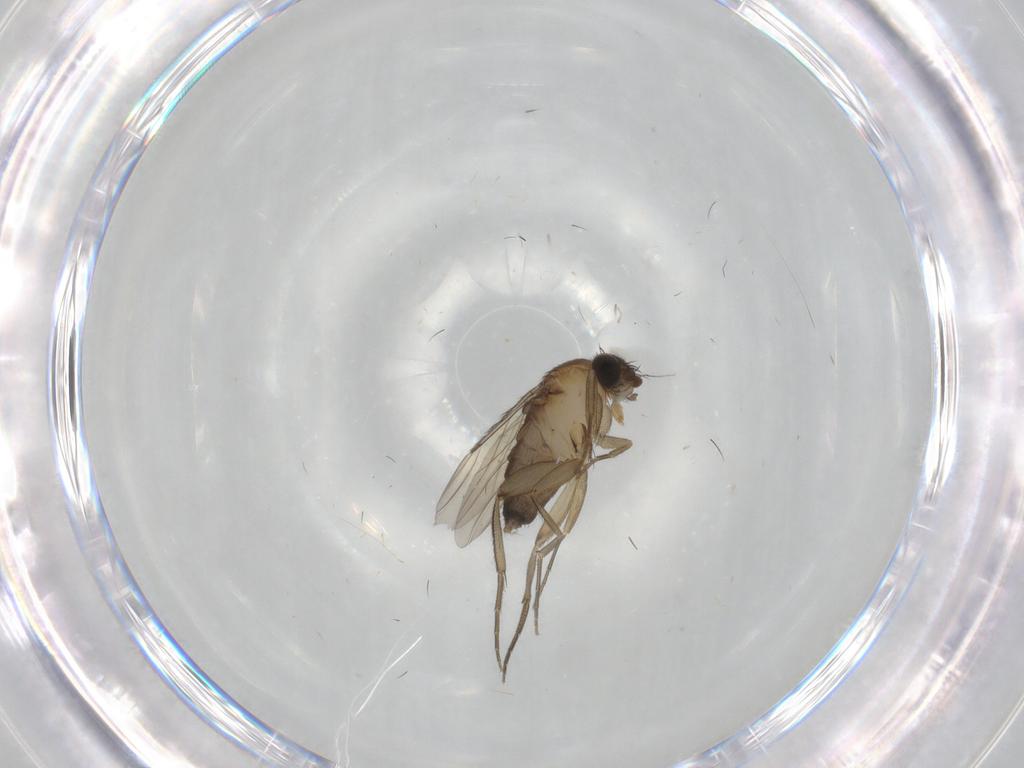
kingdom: Animalia
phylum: Arthropoda
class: Insecta
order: Diptera
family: Phoridae
